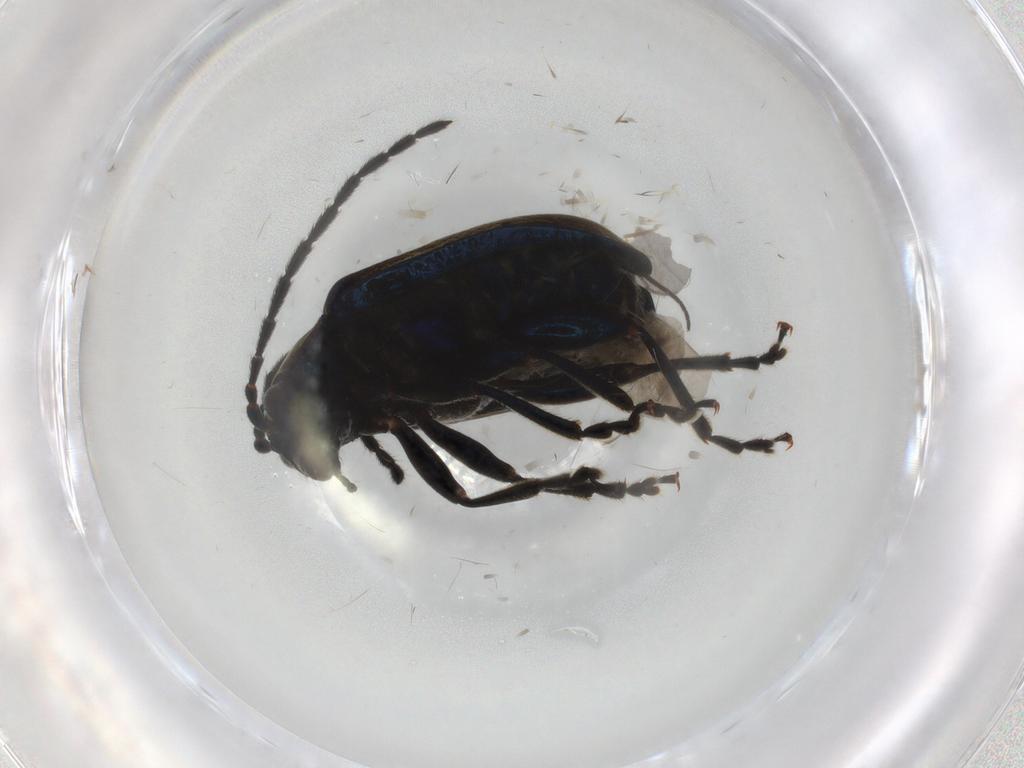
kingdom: Animalia
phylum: Arthropoda
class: Insecta
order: Coleoptera
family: Chrysomelidae
